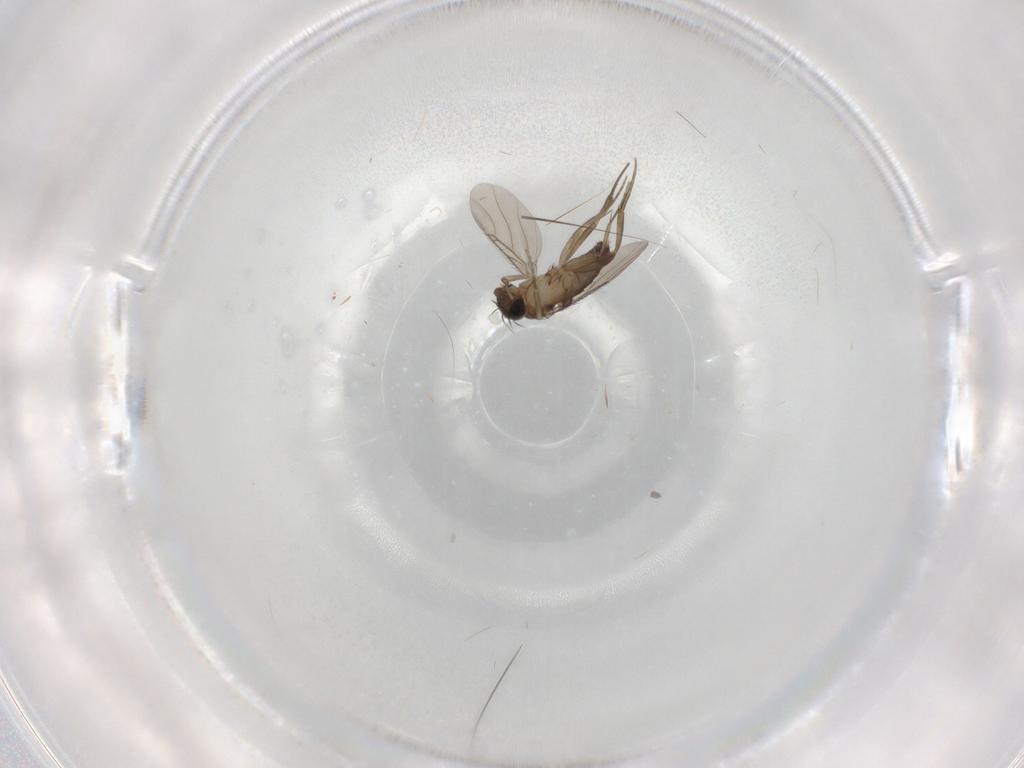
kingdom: Animalia
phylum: Arthropoda
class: Insecta
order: Diptera
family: Phoridae
